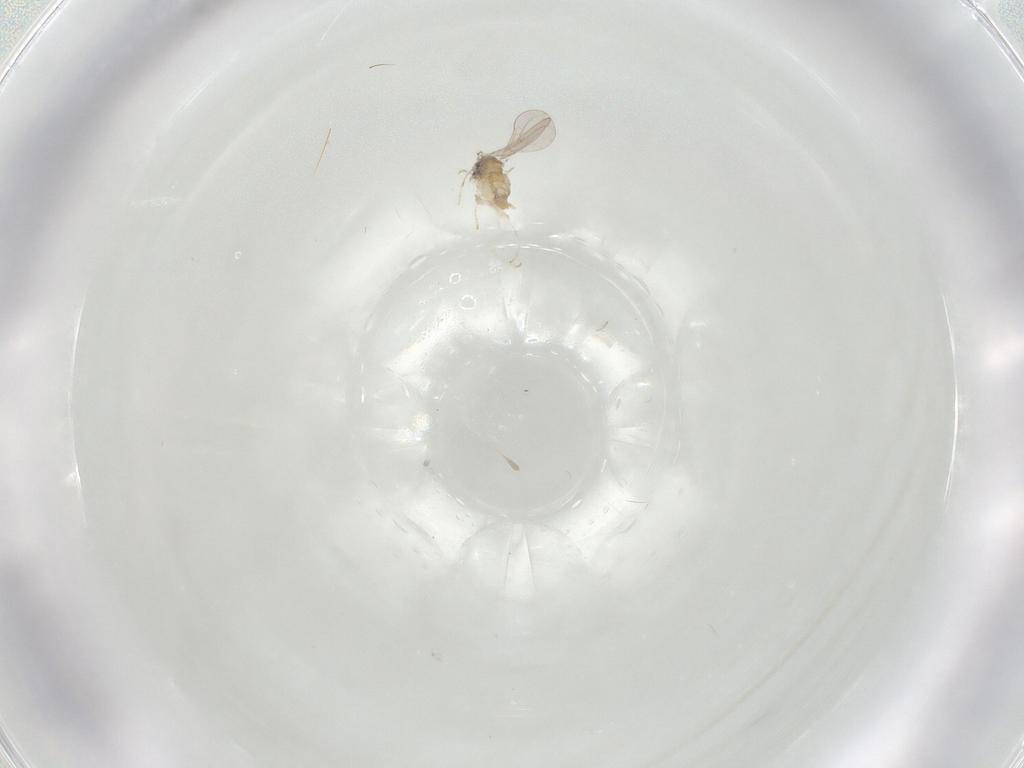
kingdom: Animalia
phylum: Arthropoda
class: Insecta
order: Diptera
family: Cecidomyiidae
